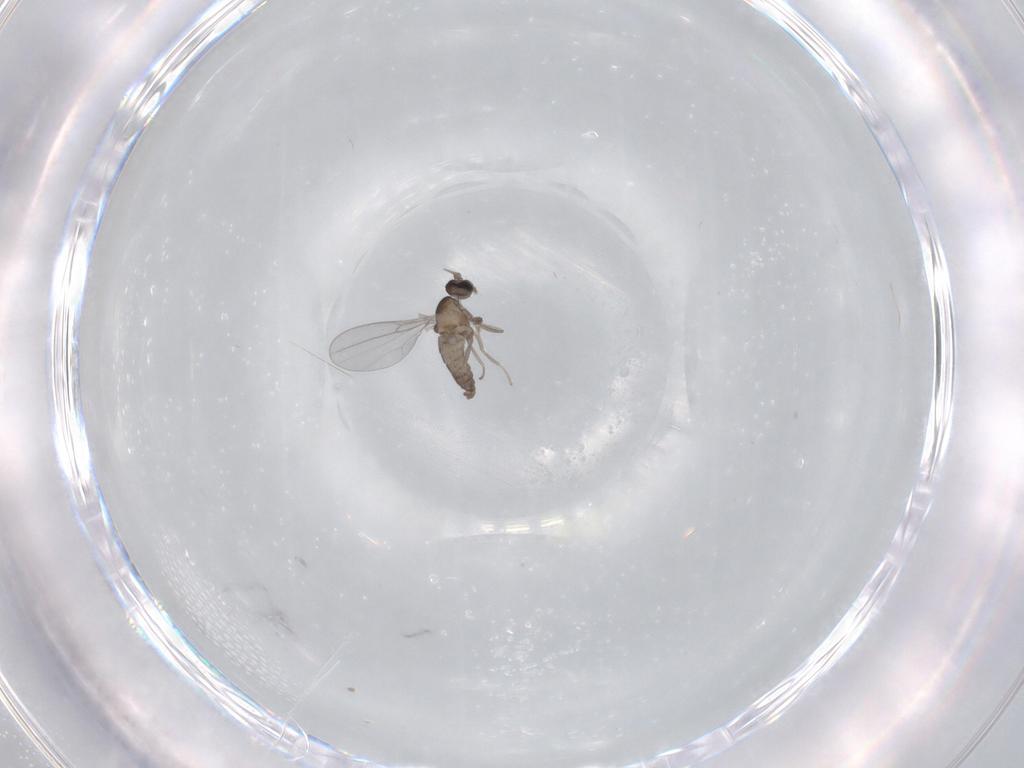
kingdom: Animalia
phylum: Arthropoda
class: Insecta
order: Diptera
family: Cecidomyiidae
